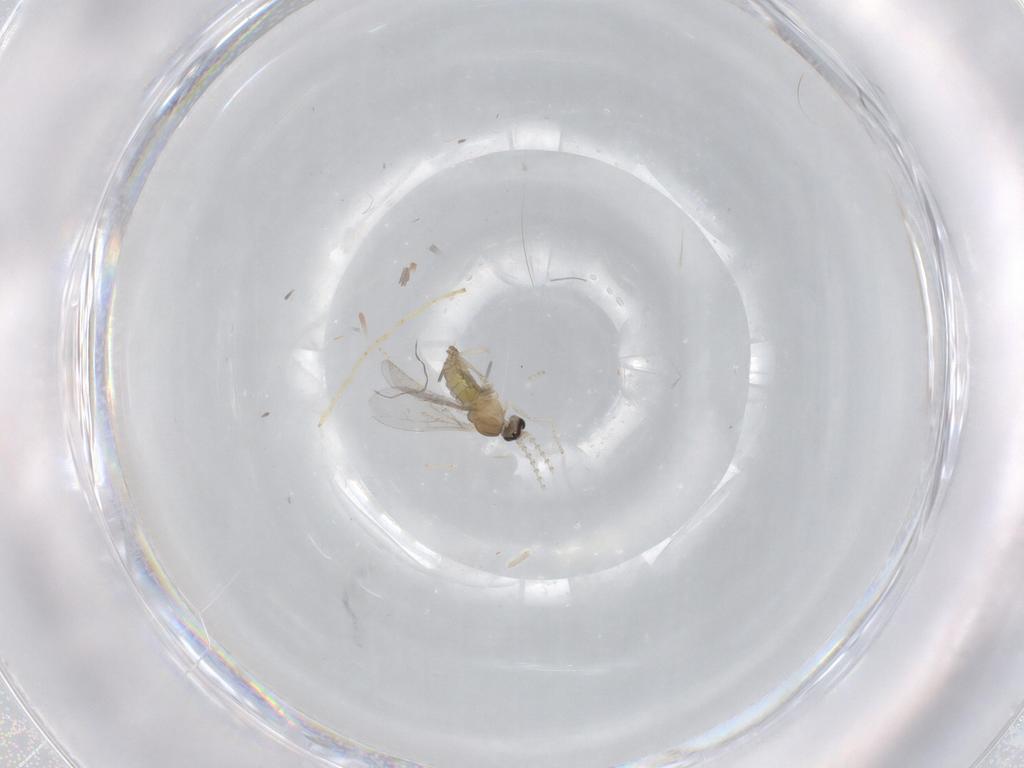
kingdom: Animalia
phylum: Arthropoda
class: Insecta
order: Diptera
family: Cecidomyiidae
